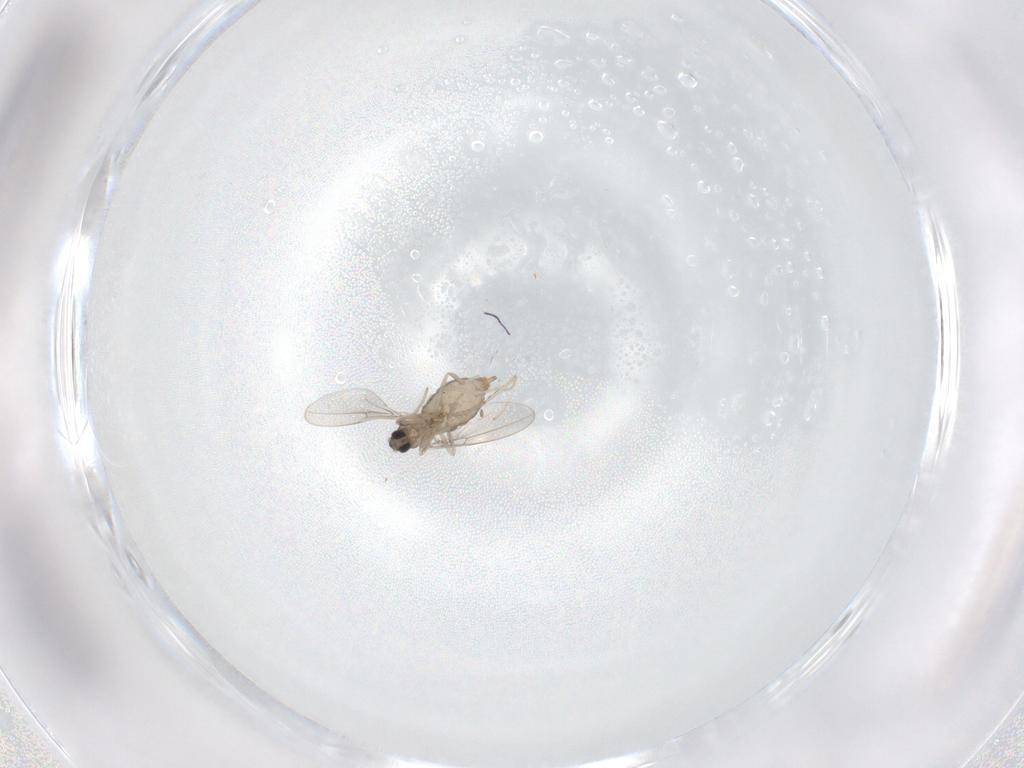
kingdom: Animalia
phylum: Arthropoda
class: Insecta
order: Diptera
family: Cecidomyiidae
